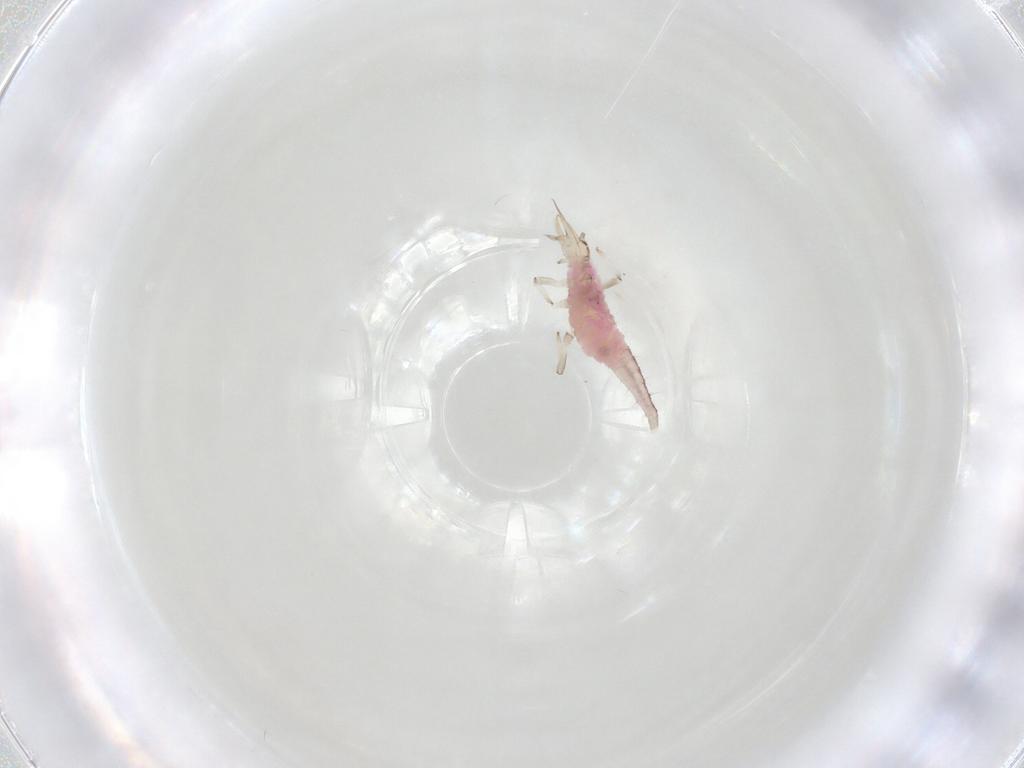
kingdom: Animalia
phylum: Arthropoda
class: Insecta
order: Neuroptera
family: Hemerobiidae
